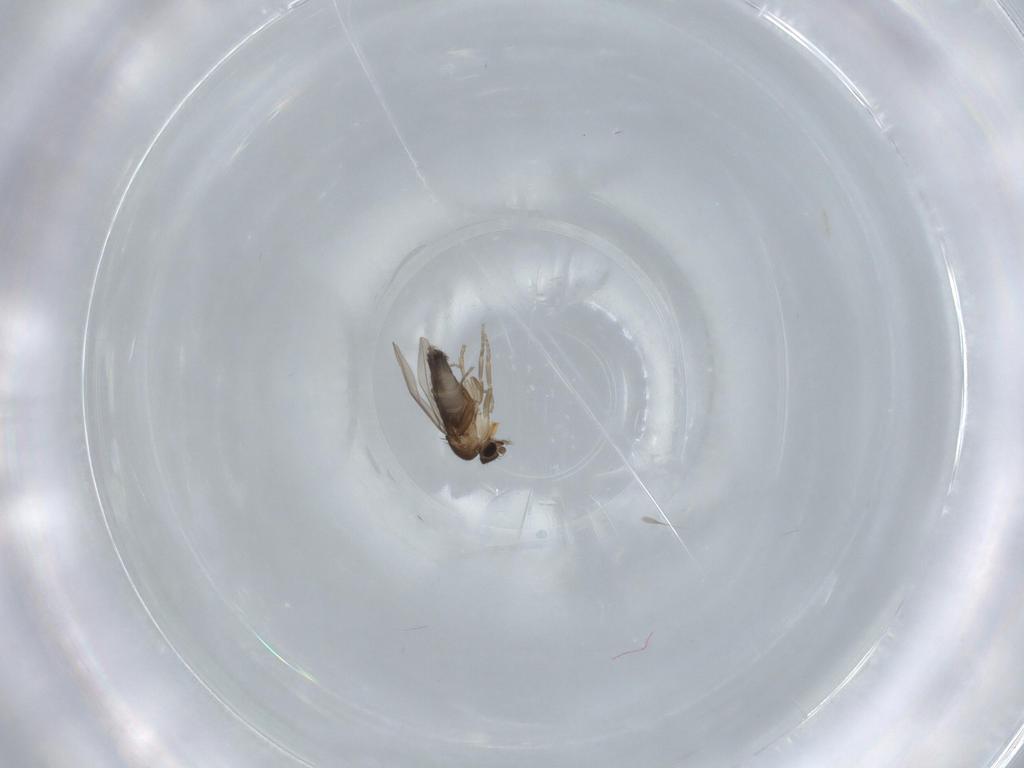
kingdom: Animalia
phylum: Arthropoda
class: Insecta
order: Diptera
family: Phoridae
